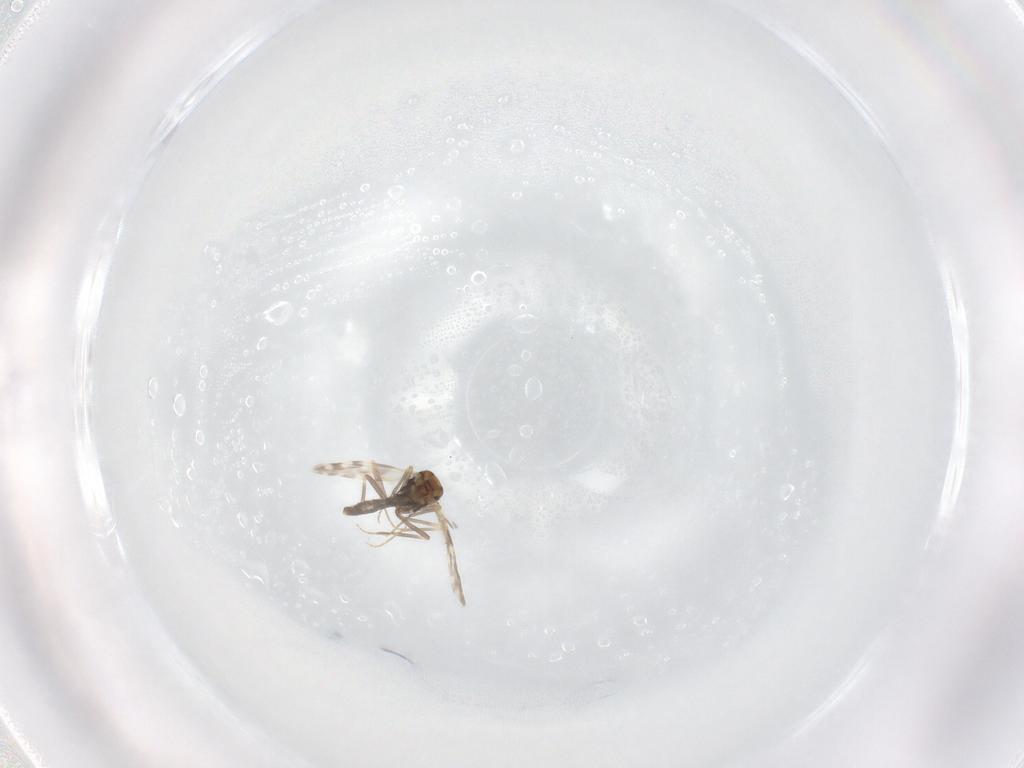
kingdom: Animalia
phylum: Arthropoda
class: Insecta
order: Diptera
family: Ceratopogonidae
